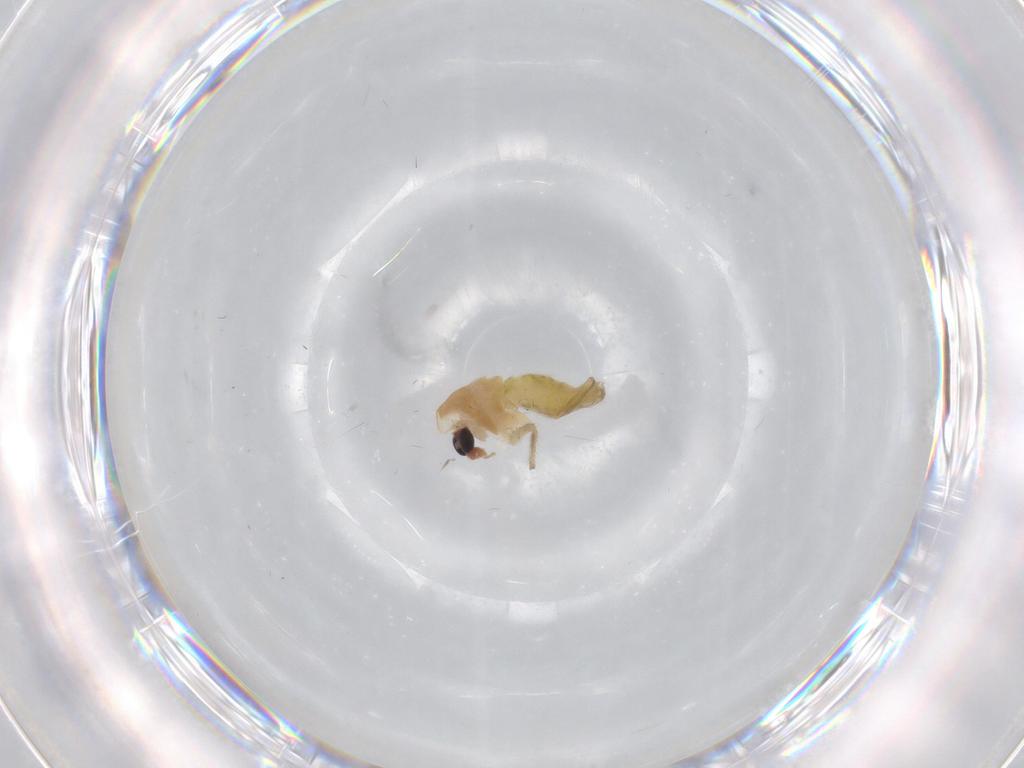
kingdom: Animalia
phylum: Arthropoda
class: Insecta
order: Diptera
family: Chironomidae
